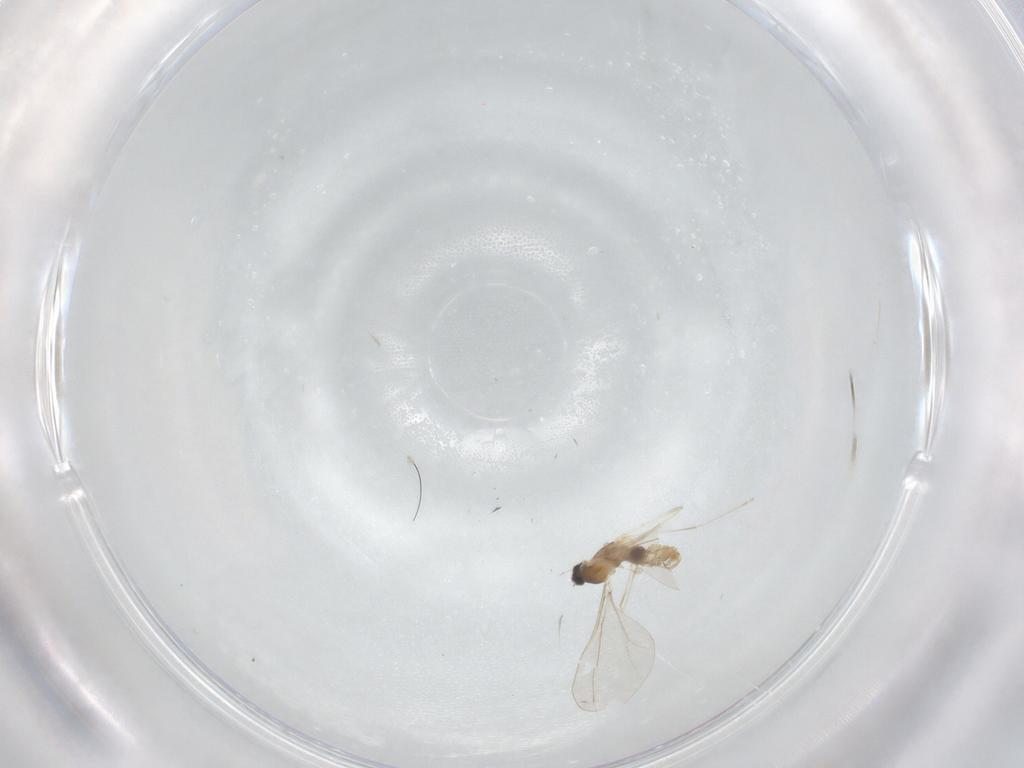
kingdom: Animalia
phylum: Arthropoda
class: Insecta
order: Diptera
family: Cecidomyiidae
